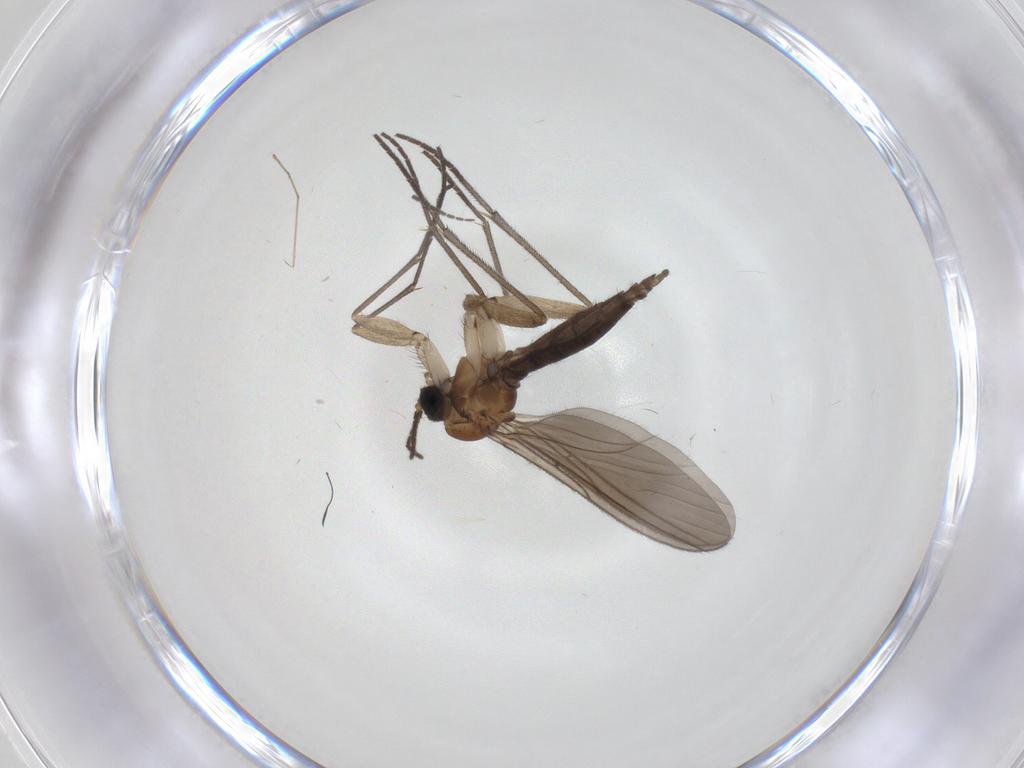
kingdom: Animalia
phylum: Arthropoda
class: Insecta
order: Diptera
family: Sciaridae
